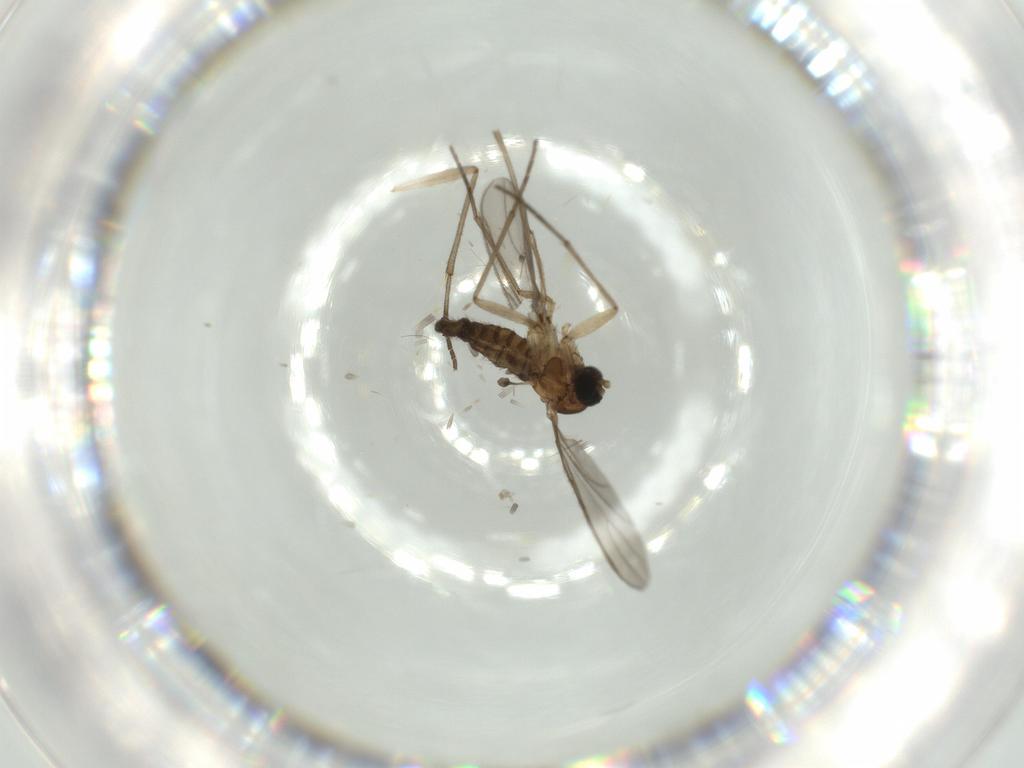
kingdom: Animalia
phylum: Arthropoda
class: Insecta
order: Diptera
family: Sciaridae
